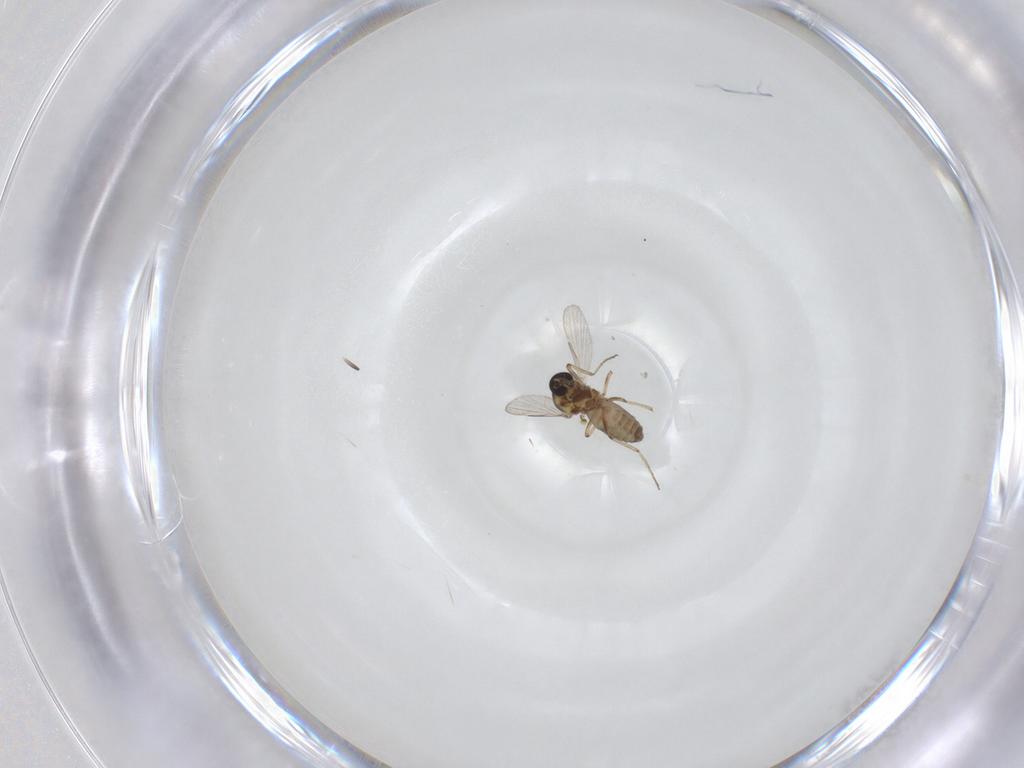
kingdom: Animalia
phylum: Arthropoda
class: Insecta
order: Diptera
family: Ceratopogonidae
